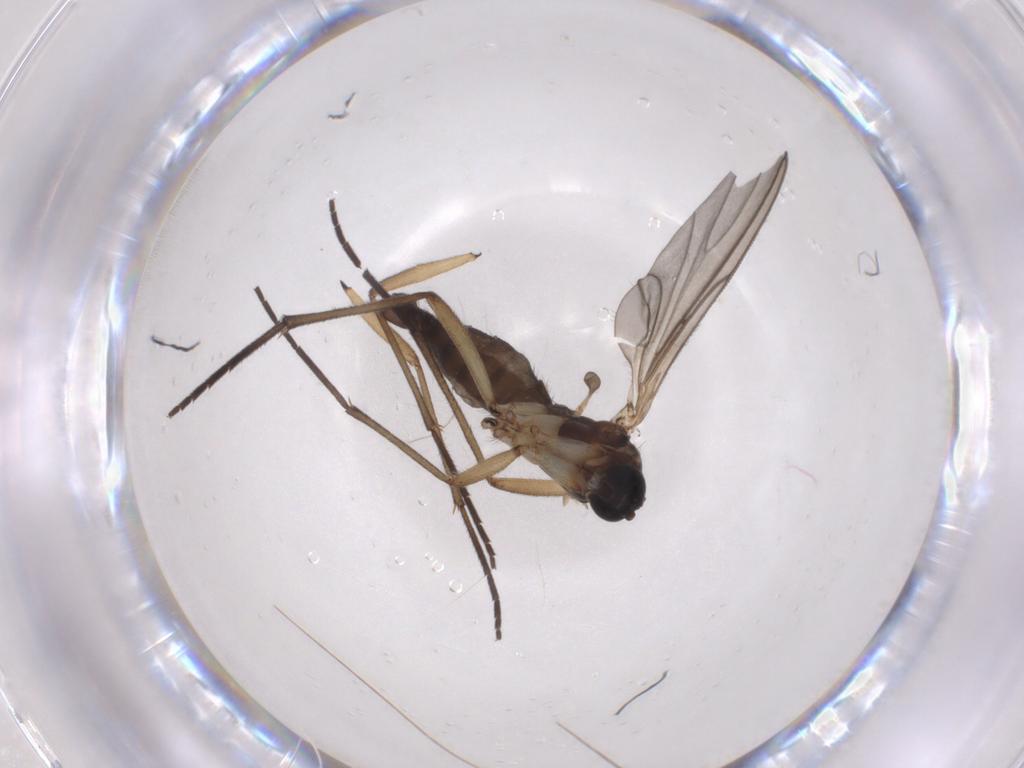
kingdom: Animalia
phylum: Arthropoda
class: Insecta
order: Diptera
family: Sciaridae
